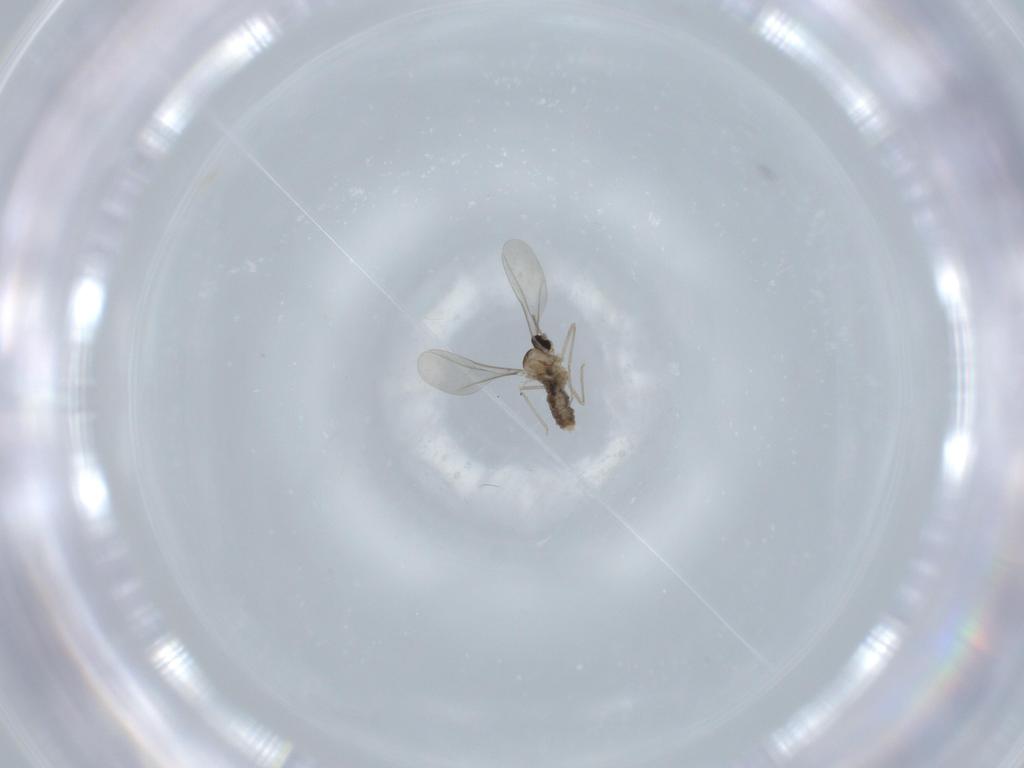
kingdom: Animalia
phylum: Arthropoda
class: Insecta
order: Diptera
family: Cecidomyiidae
